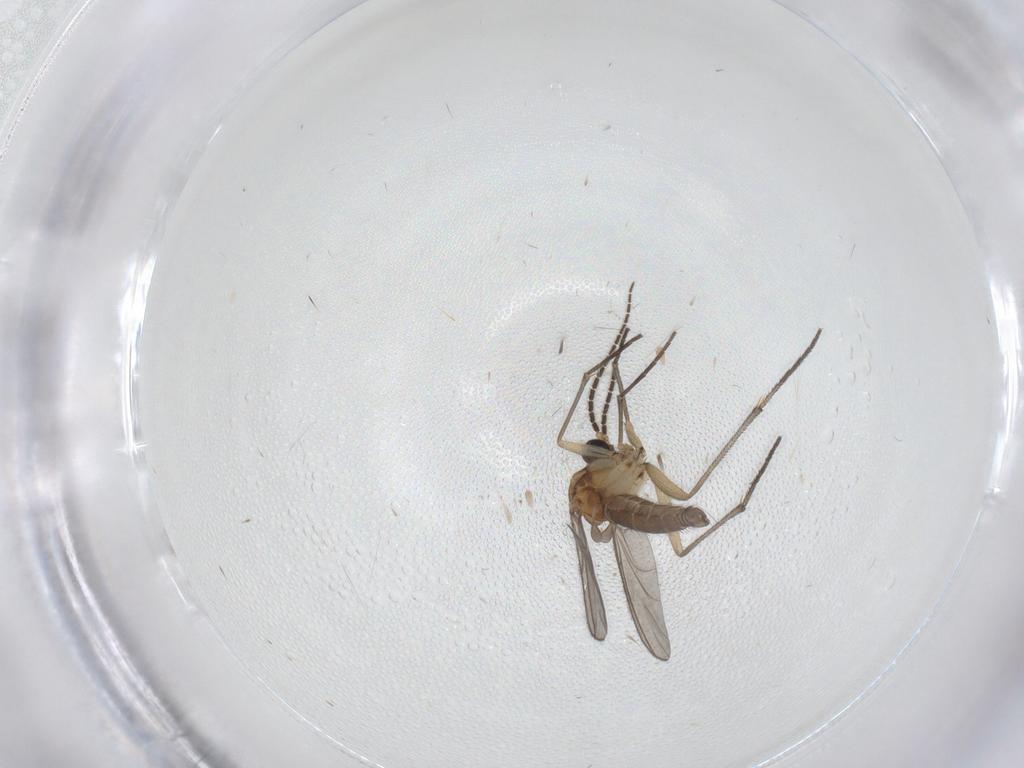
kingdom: Animalia
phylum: Arthropoda
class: Insecta
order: Diptera
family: Sciaridae
